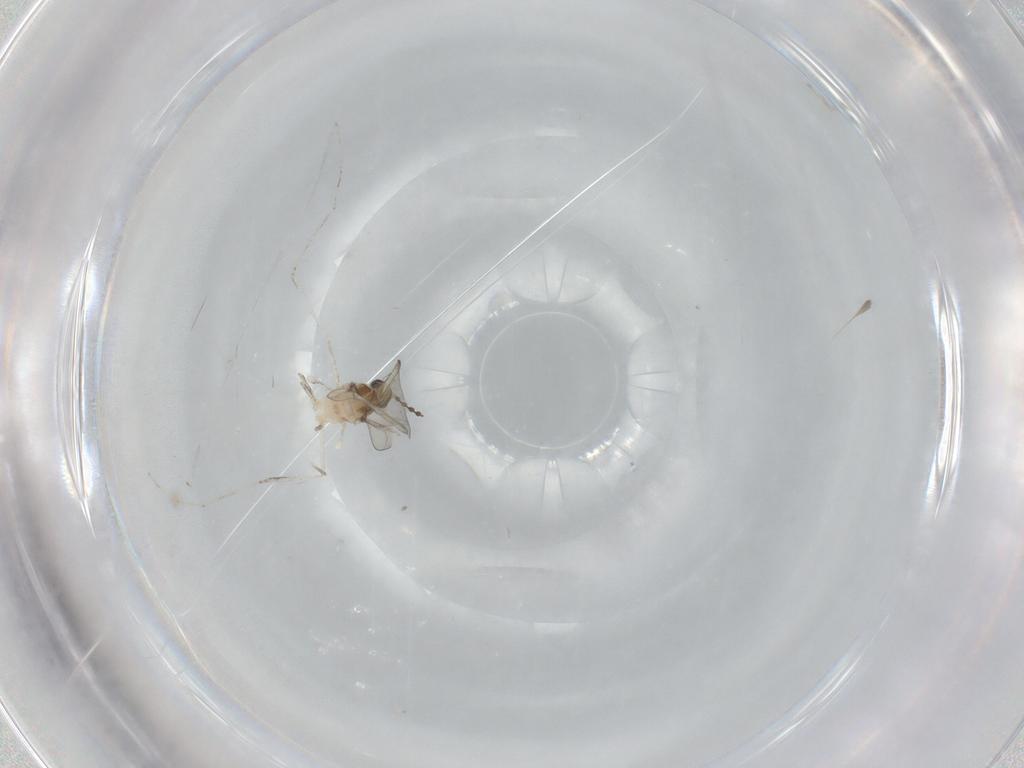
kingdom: Animalia
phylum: Arthropoda
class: Insecta
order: Diptera
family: Cecidomyiidae
